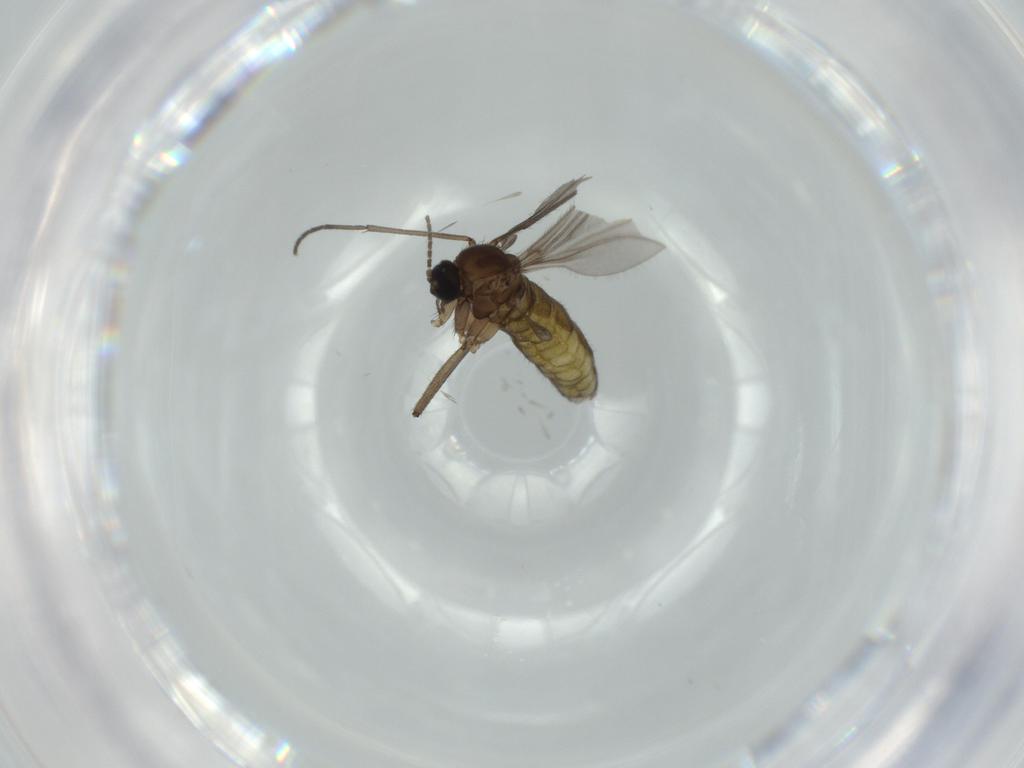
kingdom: Animalia
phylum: Arthropoda
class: Insecta
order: Diptera
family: Sciaridae
